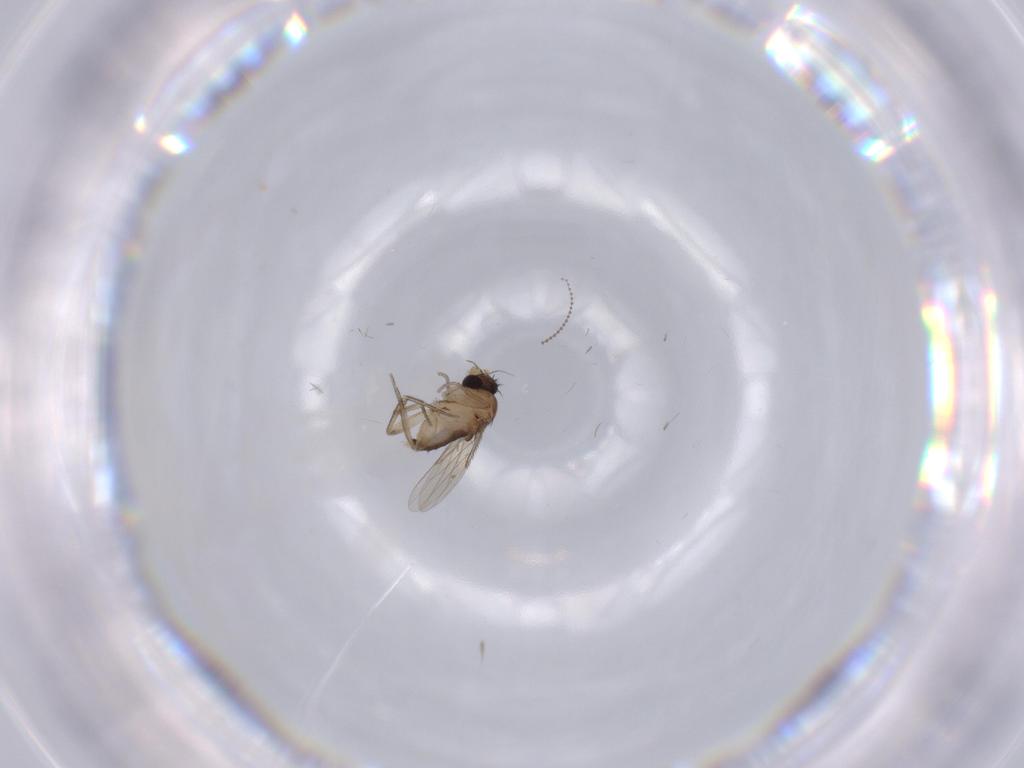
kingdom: Animalia
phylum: Arthropoda
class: Insecta
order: Diptera
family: Phoridae
